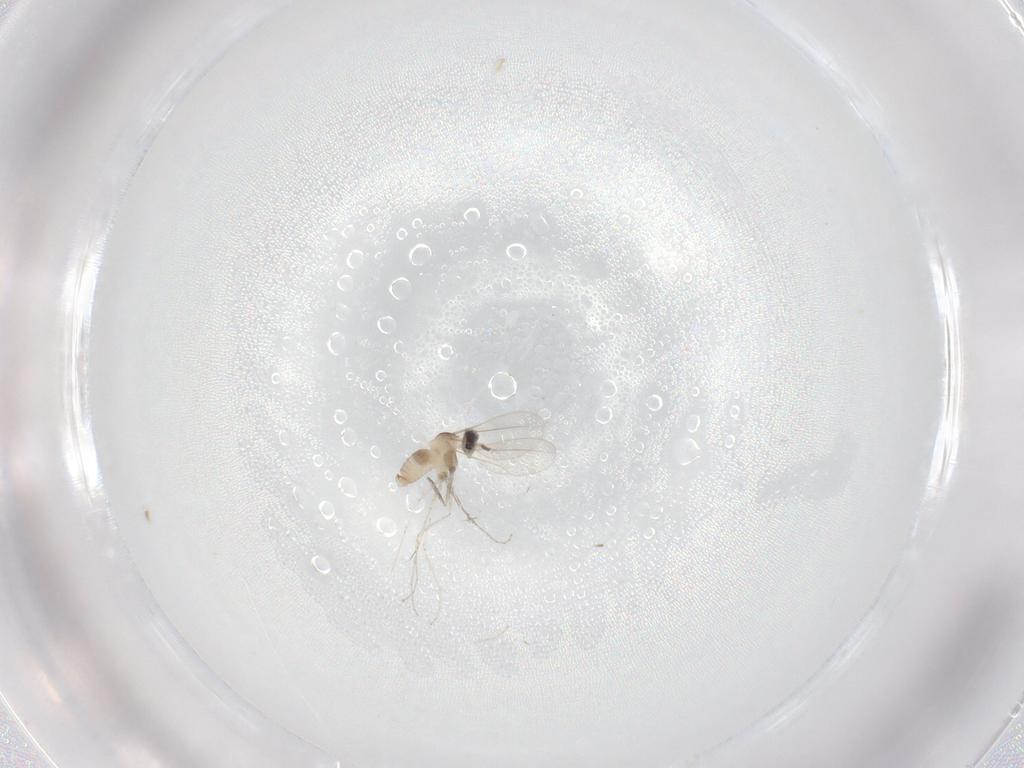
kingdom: Animalia
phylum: Arthropoda
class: Insecta
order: Diptera
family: Cecidomyiidae
